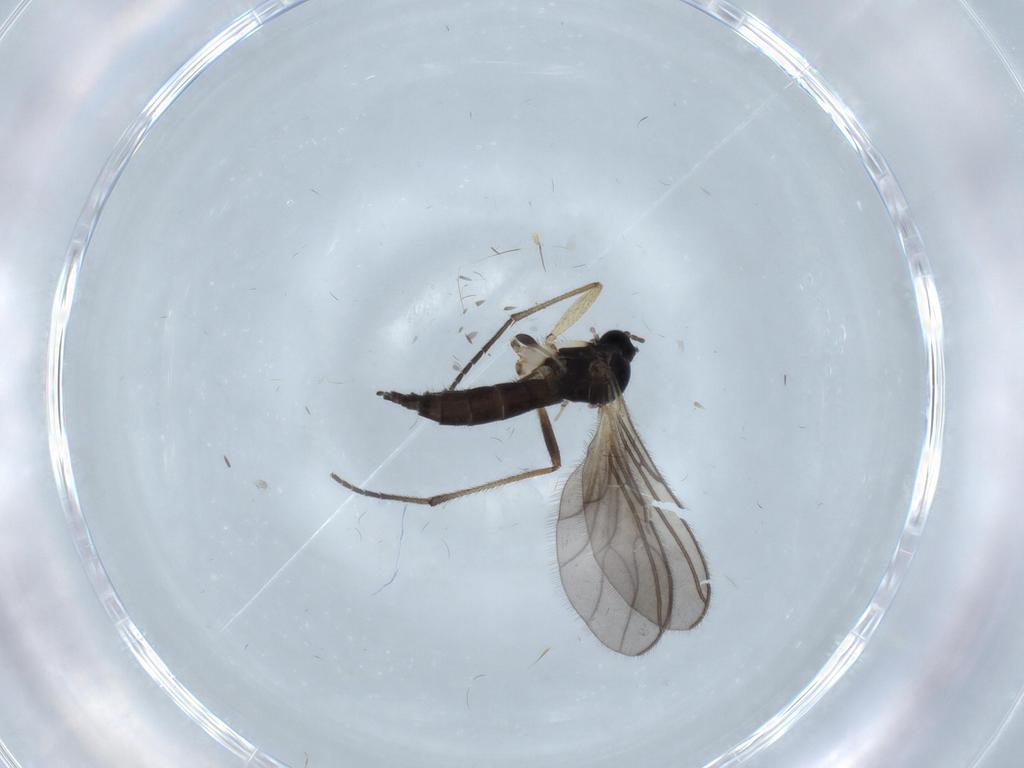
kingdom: Animalia
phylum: Arthropoda
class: Insecta
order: Diptera
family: Sciaridae
